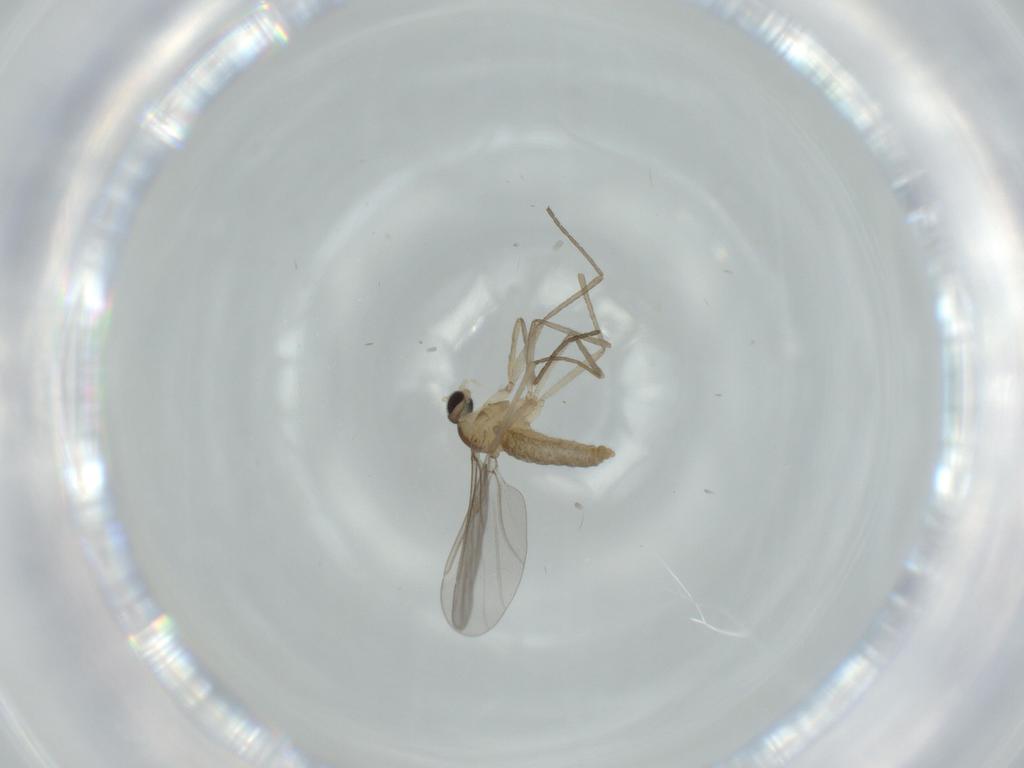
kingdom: Animalia
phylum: Arthropoda
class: Insecta
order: Diptera
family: Cecidomyiidae
